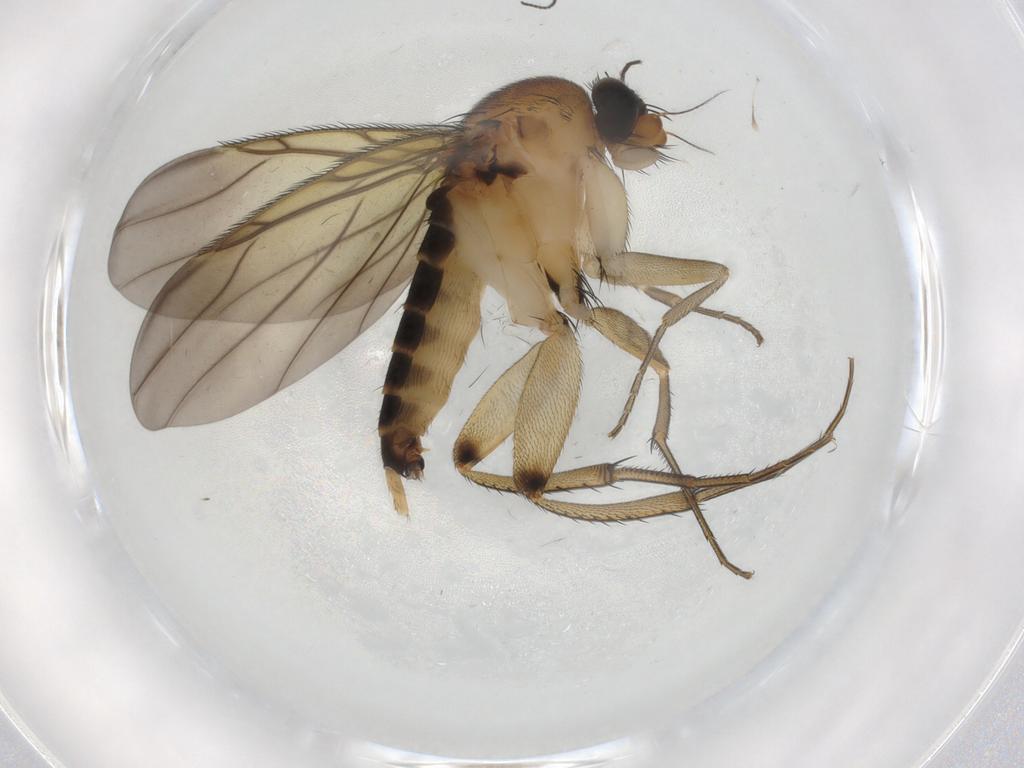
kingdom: Animalia
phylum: Arthropoda
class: Insecta
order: Diptera
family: Phoridae
